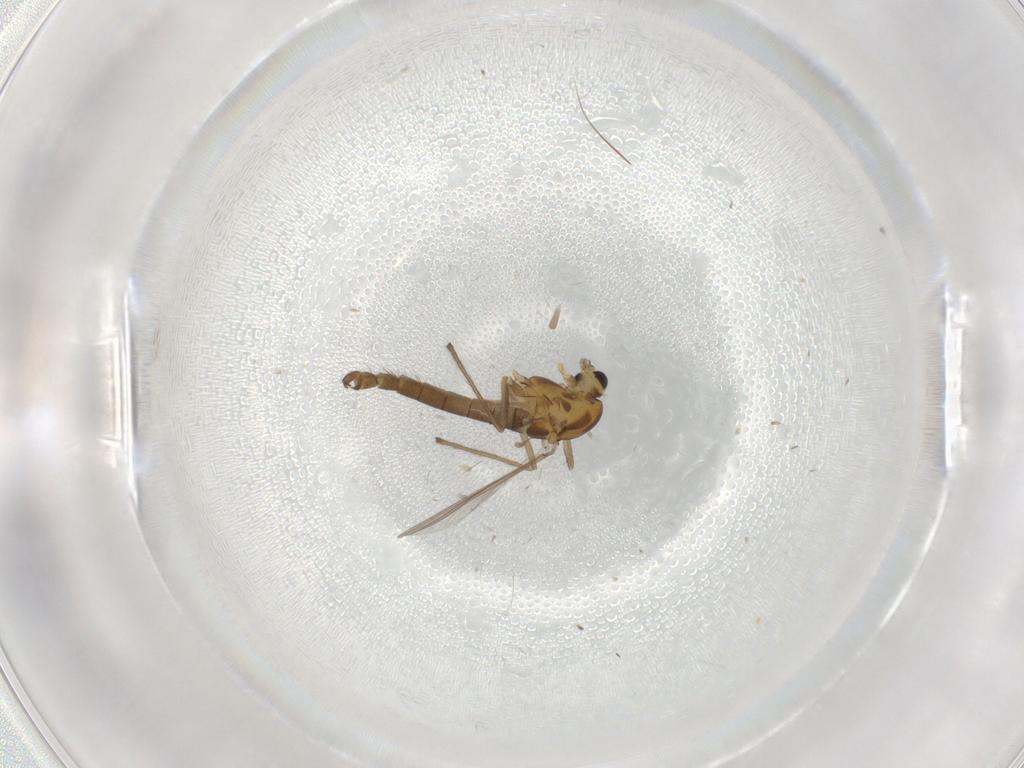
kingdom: Animalia
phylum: Arthropoda
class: Insecta
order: Diptera
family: Chironomidae
